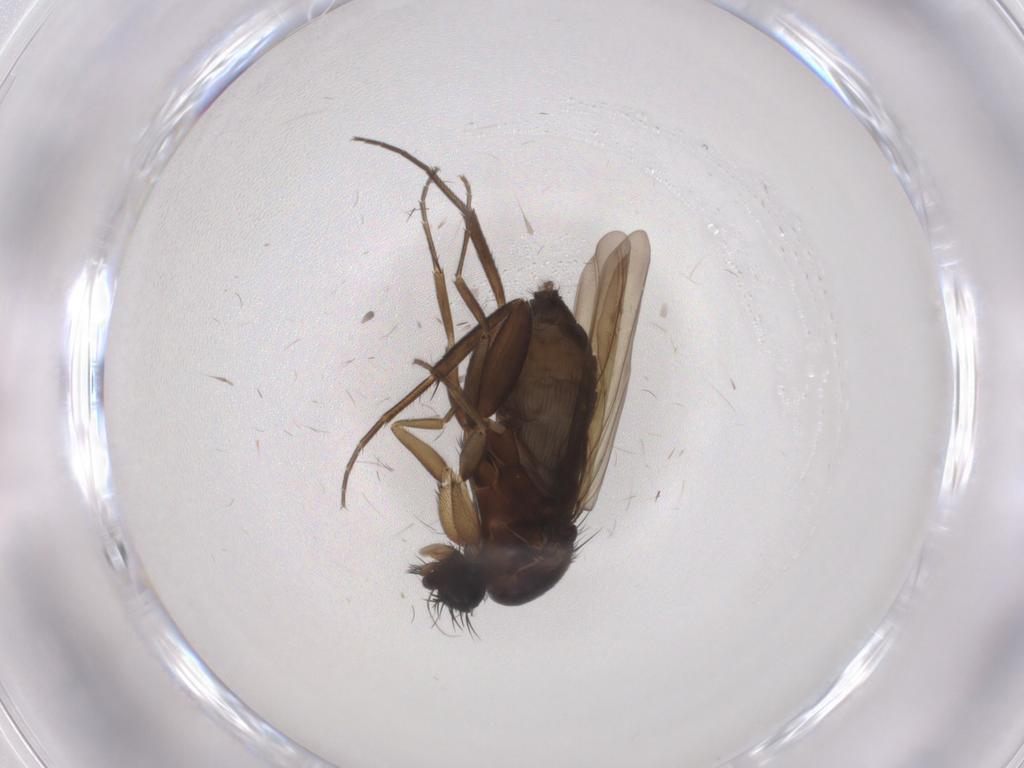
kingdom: Animalia
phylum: Arthropoda
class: Insecta
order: Diptera
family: Phoridae
